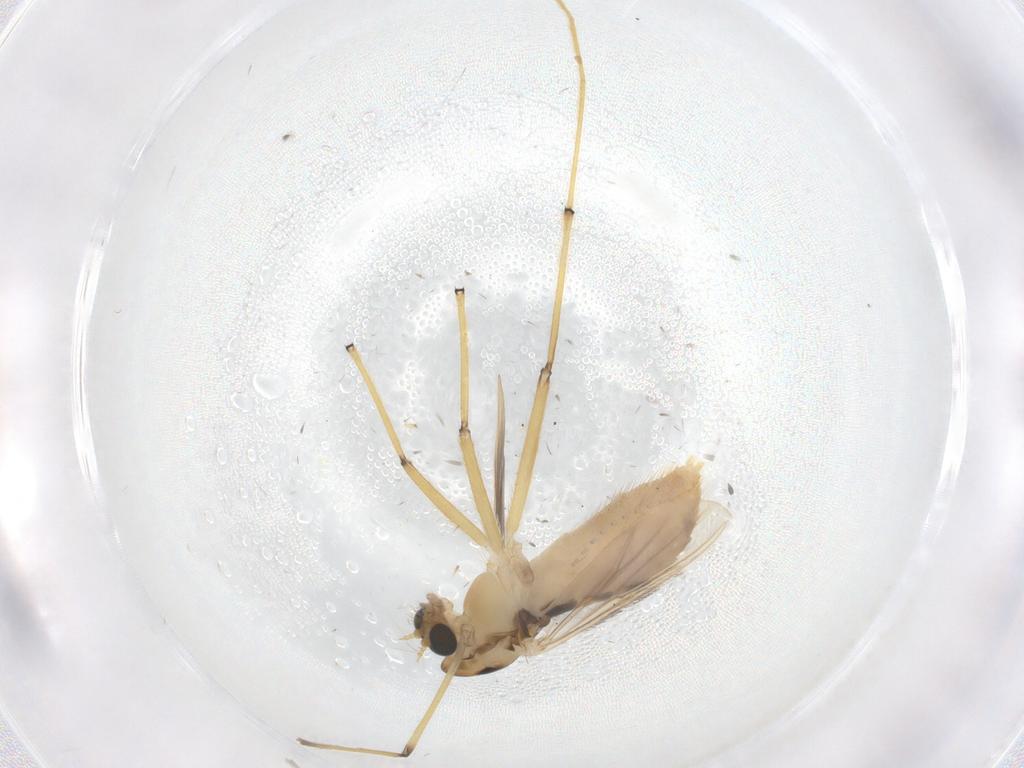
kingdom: Animalia
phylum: Arthropoda
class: Insecta
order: Diptera
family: Chironomidae
